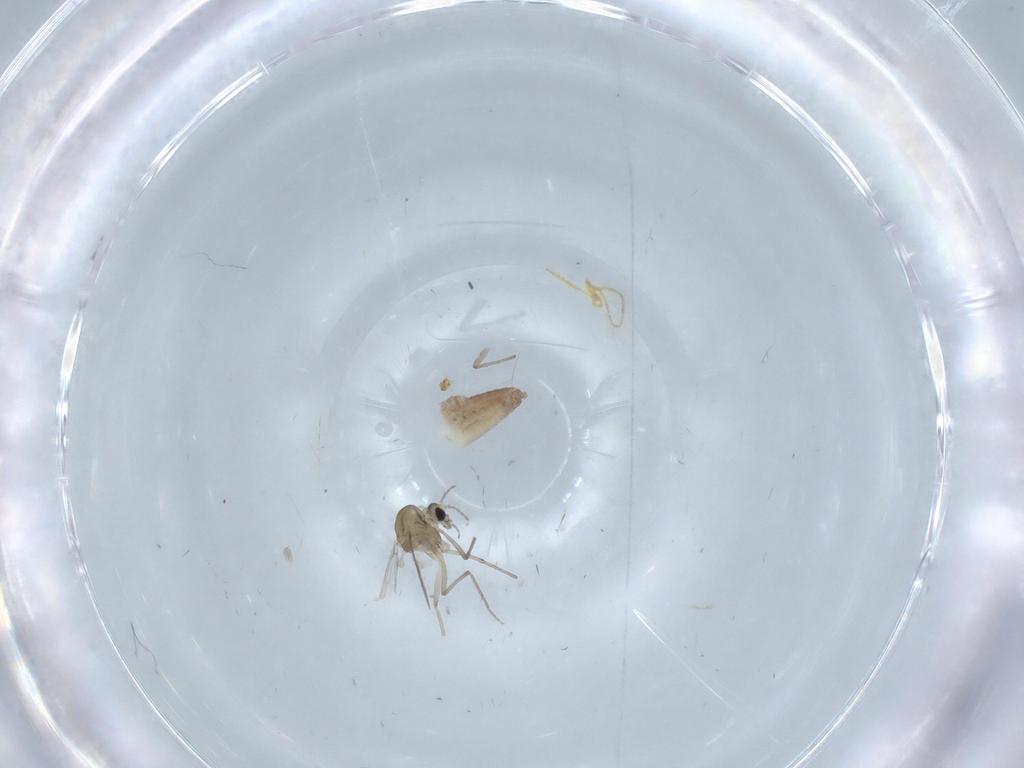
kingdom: Animalia
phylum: Arthropoda
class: Insecta
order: Diptera
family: Chironomidae
